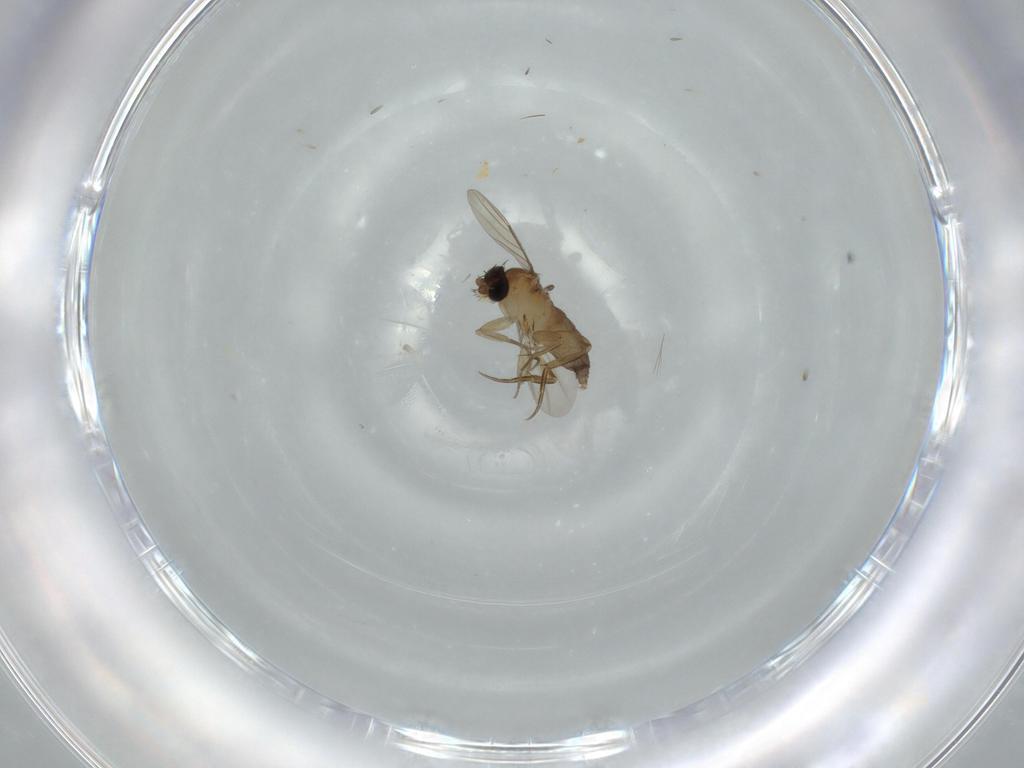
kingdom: Animalia
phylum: Arthropoda
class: Insecta
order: Diptera
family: Phoridae
